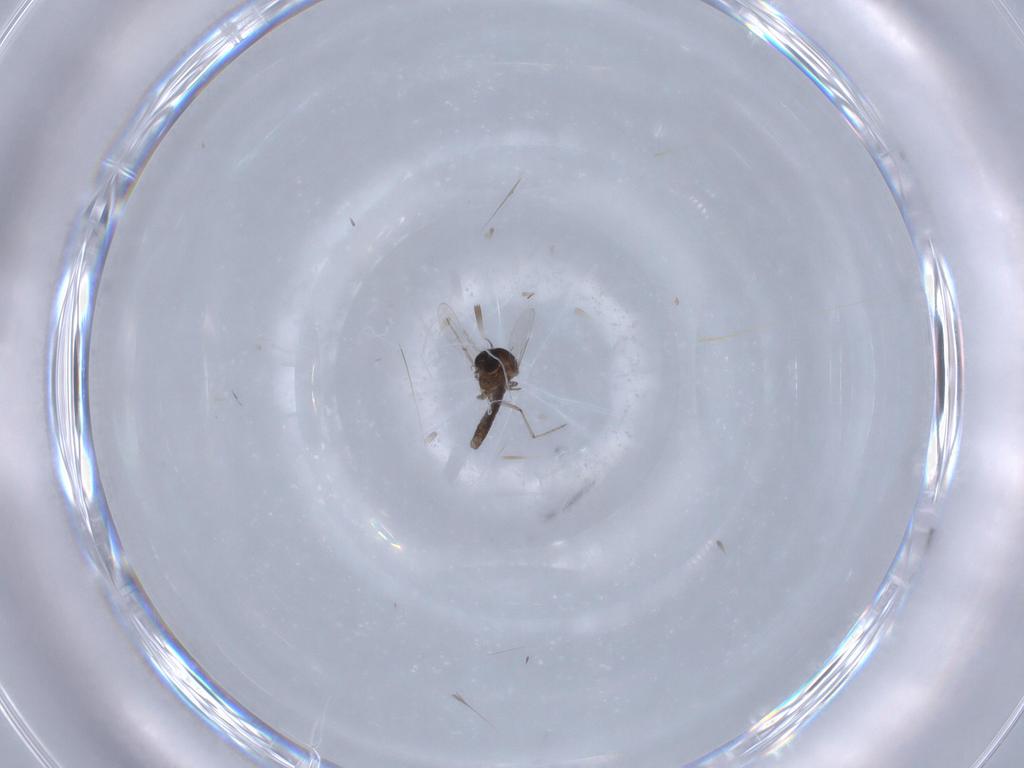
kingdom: Animalia
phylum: Arthropoda
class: Insecta
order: Diptera
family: Ceratopogonidae
